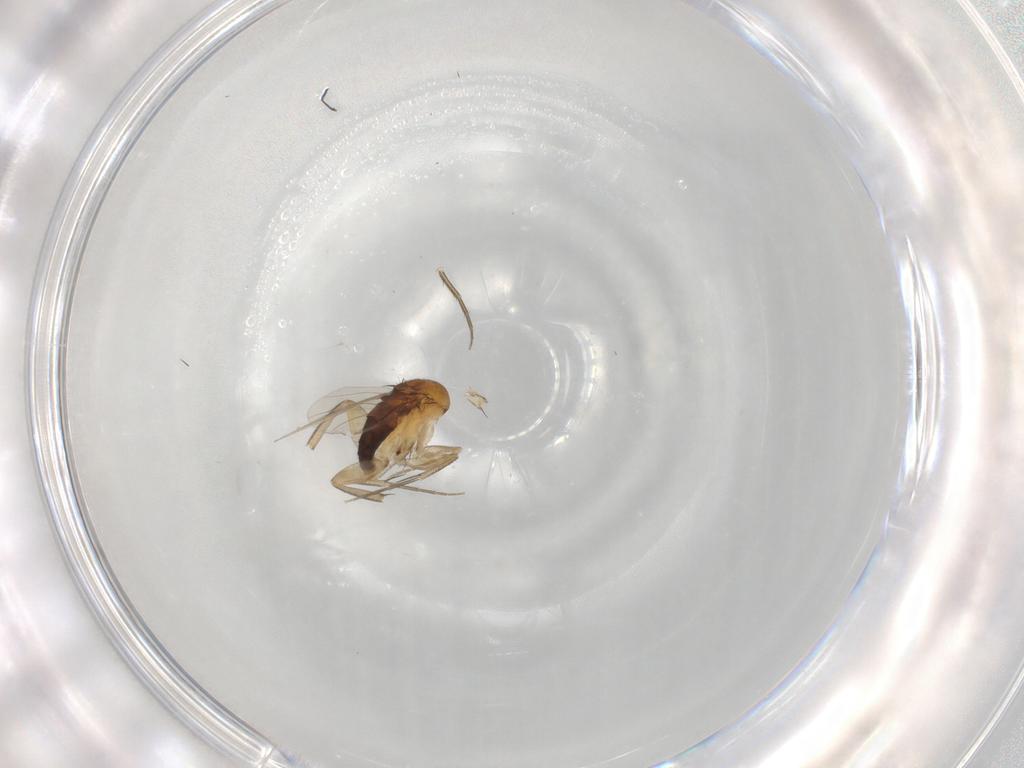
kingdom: Animalia
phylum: Arthropoda
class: Insecta
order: Diptera
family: Phoridae
